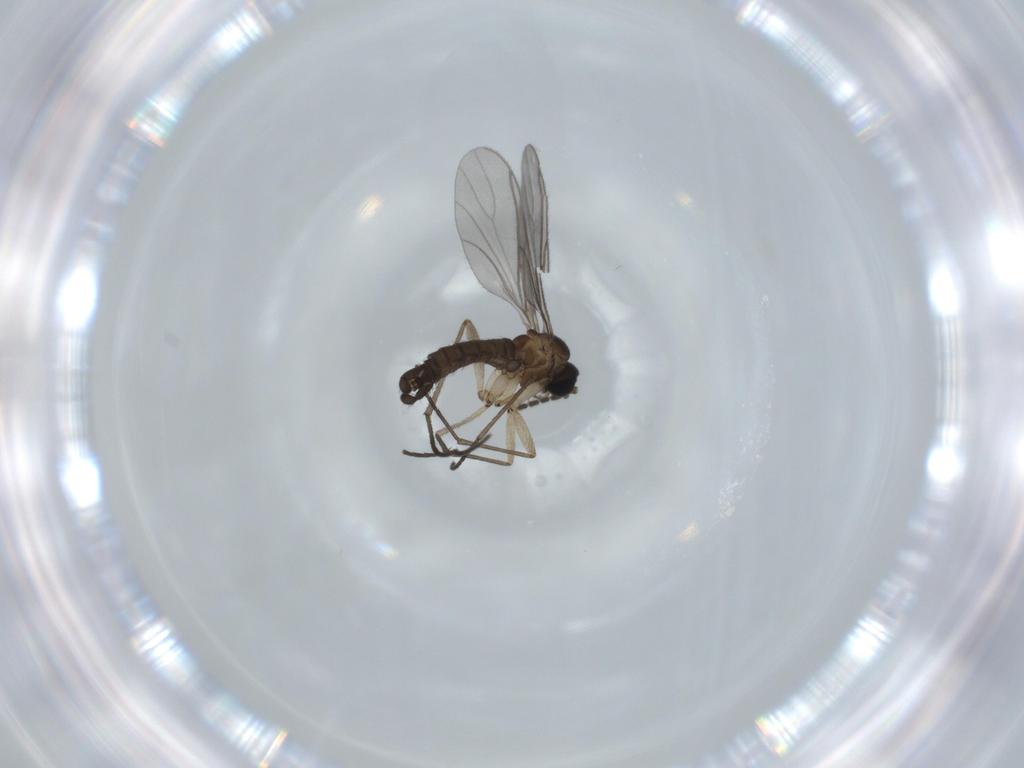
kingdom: Animalia
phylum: Arthropoda
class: Insecta
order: Diptera
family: Sciaridae
